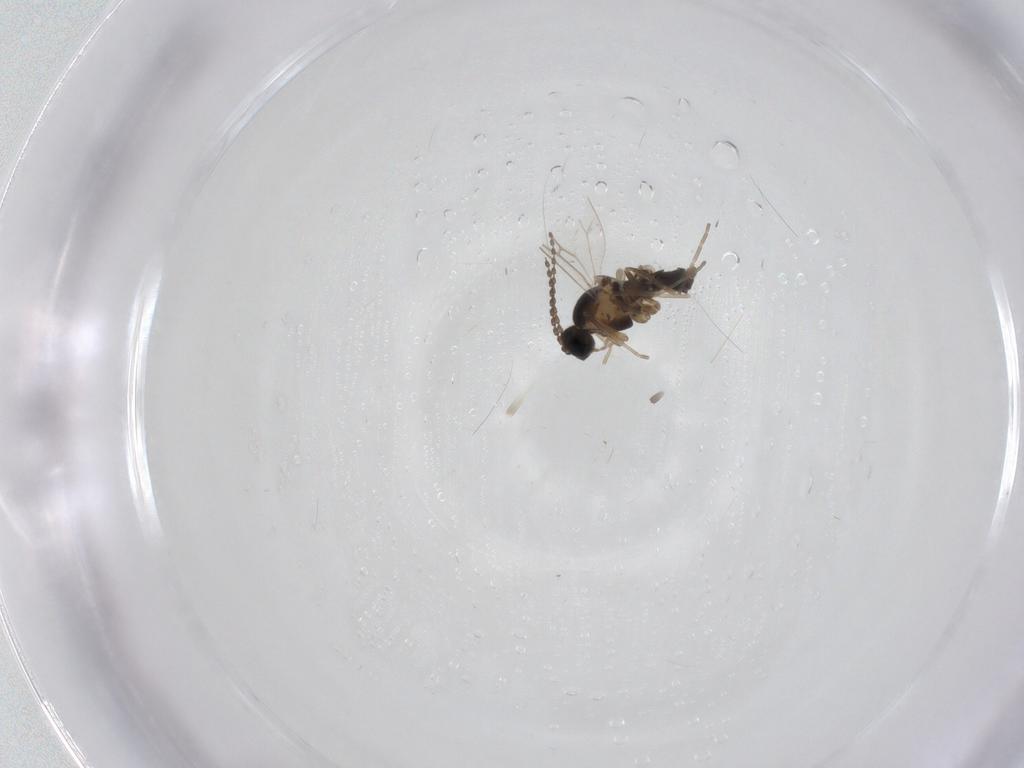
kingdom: Animalia
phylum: Arthropoda
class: Insecta
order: Diptera
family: Cecidomyiidae
